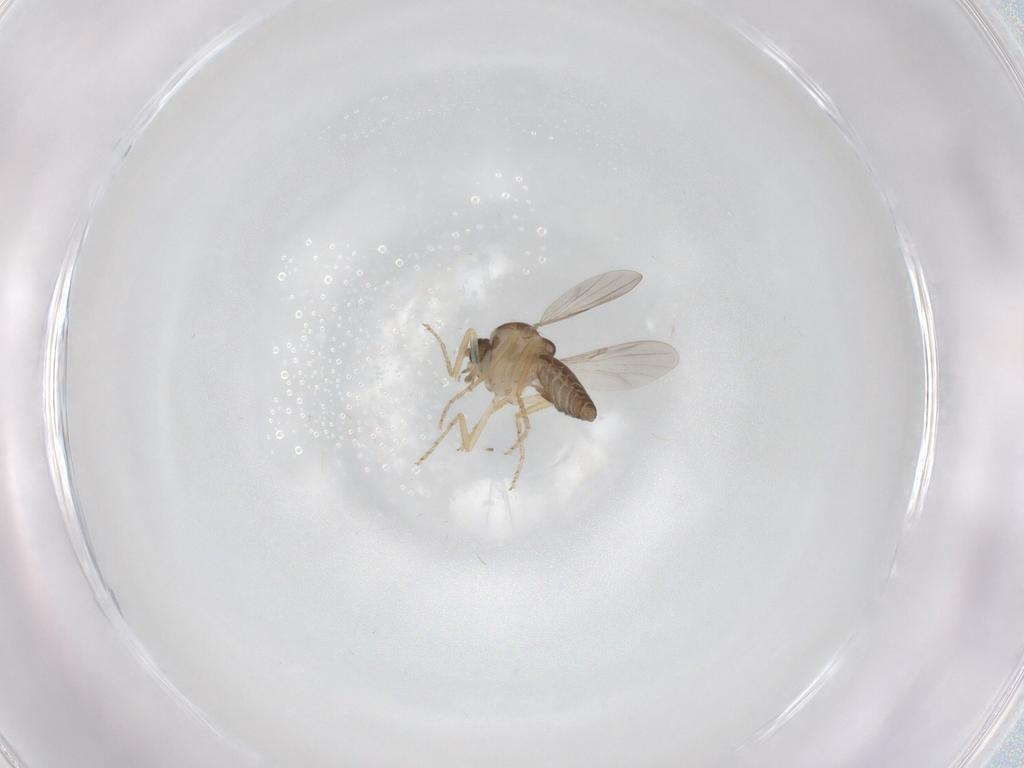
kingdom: Animalia
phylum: Arthropoda
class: Insecta
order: Diptera
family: Ceratopogonidae
